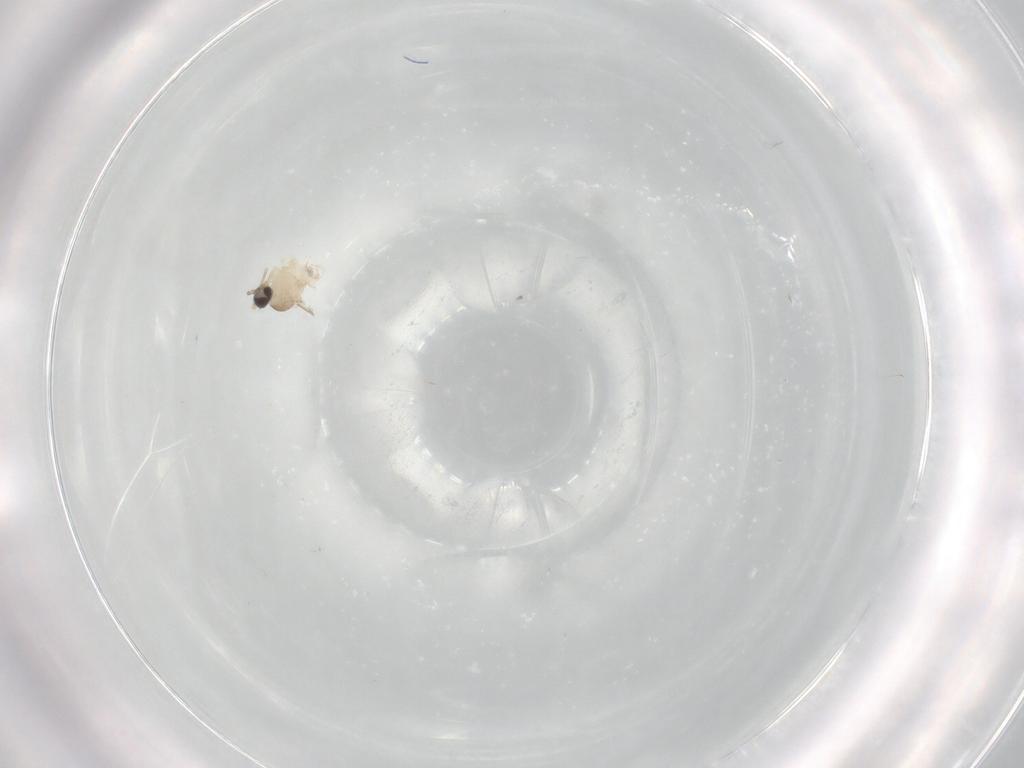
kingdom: Animalia
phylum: Arthropoda
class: Insecta
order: Diptera
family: Cecidomyiidae
